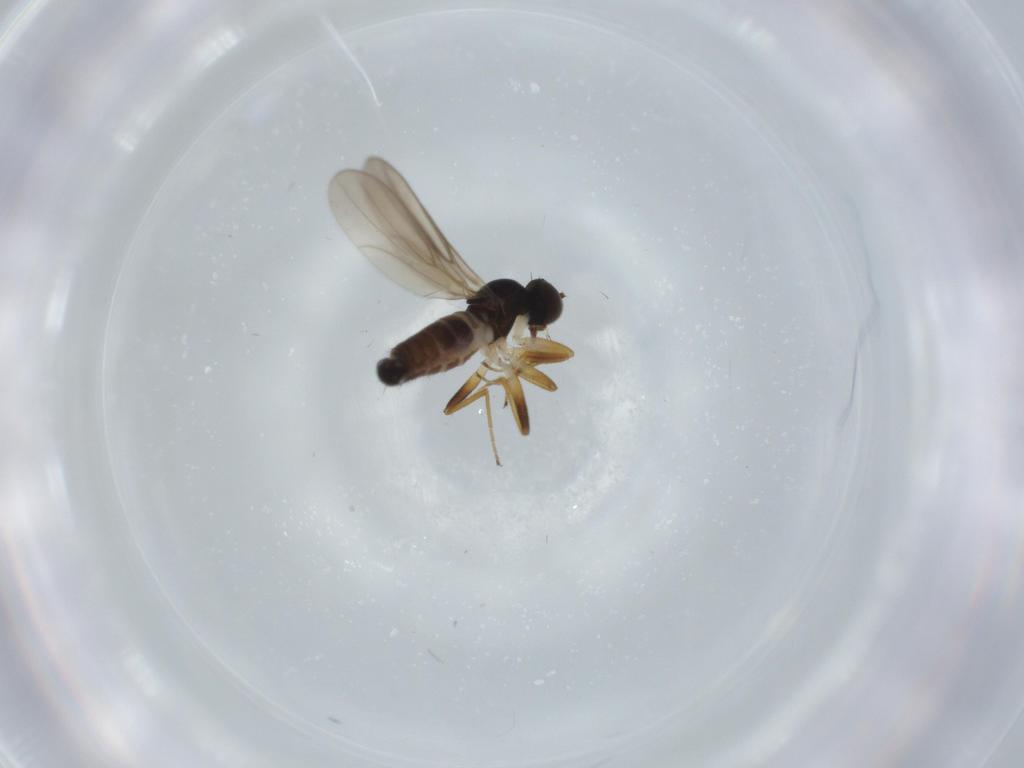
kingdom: Animalia
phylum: Arthropoda
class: Insecta
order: Diptera
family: Hybotidae
